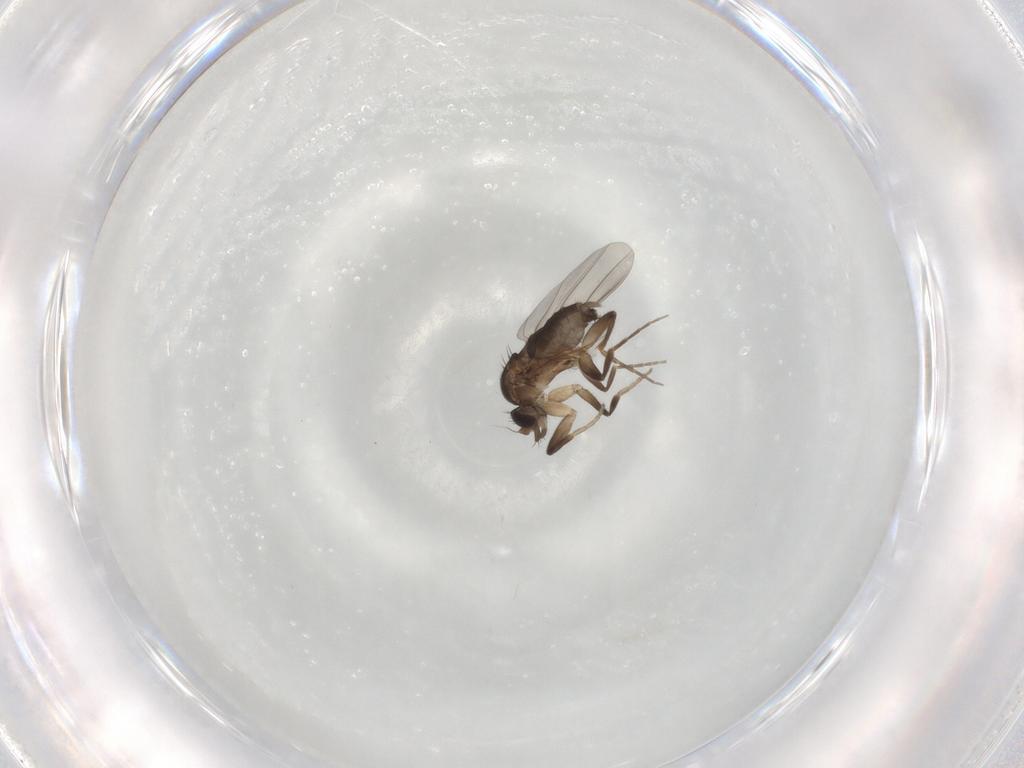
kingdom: Animalia
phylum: Arthropoda
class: Insecta
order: Diptera
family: Phoridae
